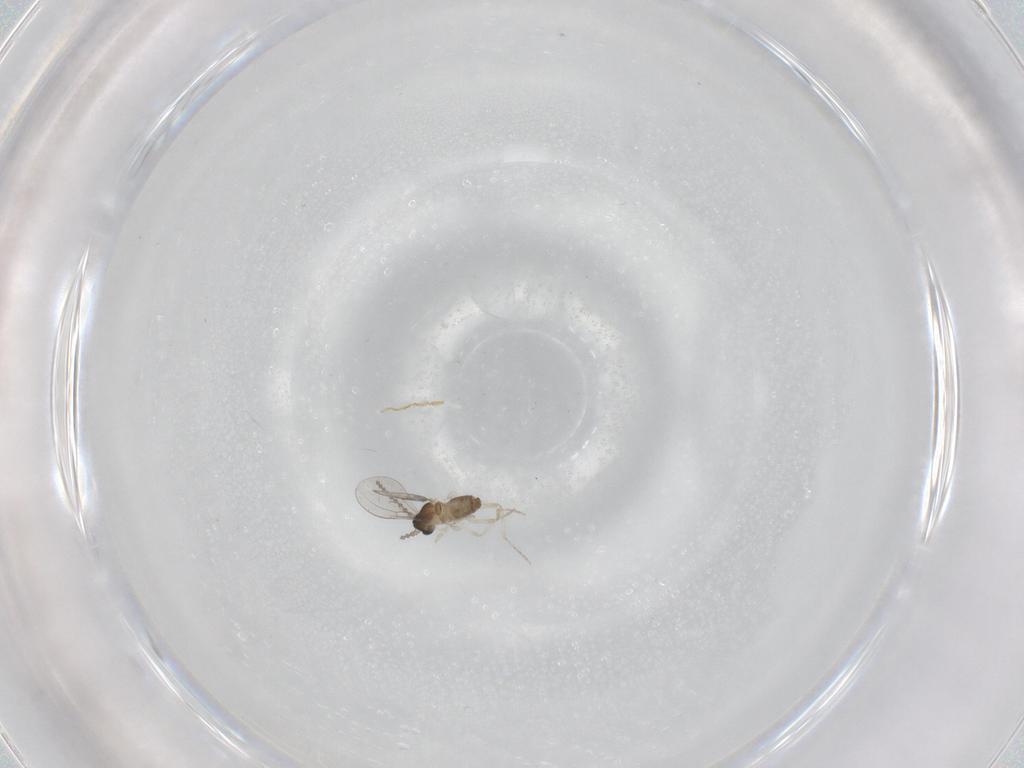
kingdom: Animalia
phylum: Arthropoda
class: Insecta
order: Diptera
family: Cecidomyiidae
